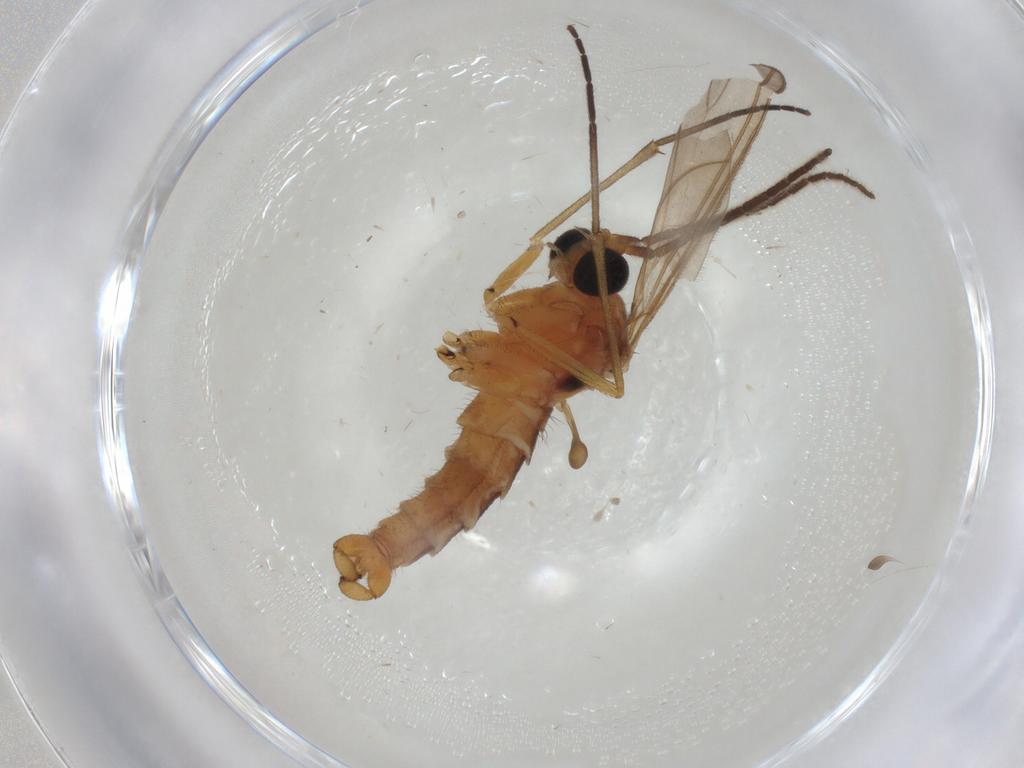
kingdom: Animalia
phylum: Arthropoda
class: Insecta
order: Diptera
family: Sciaridae
